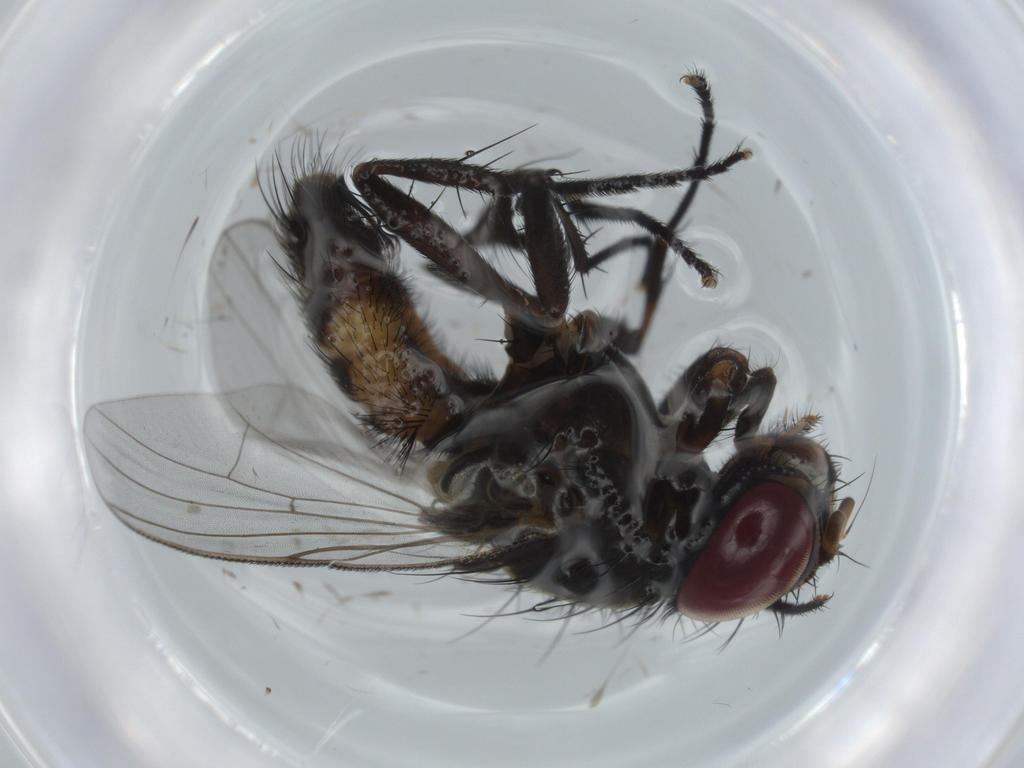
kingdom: Animalia
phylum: Arthropoda
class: Insecta
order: Diptera
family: Fannia
